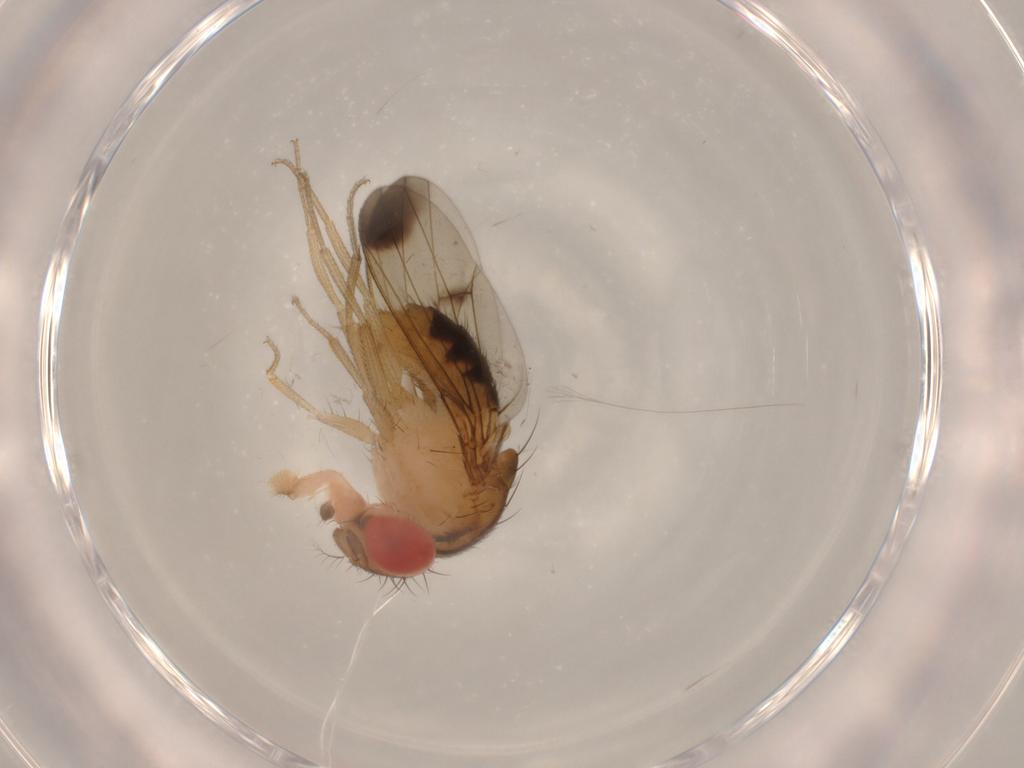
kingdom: Animalia
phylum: Arthropoda
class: Insecta
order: Diptera
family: Drosophilidae
